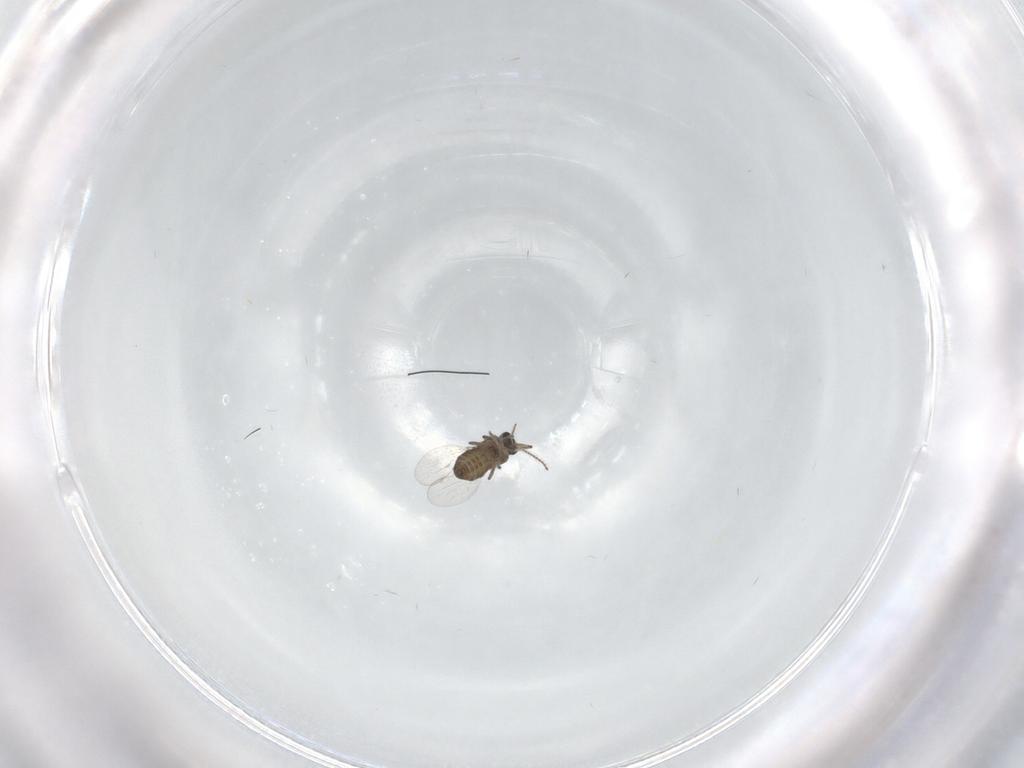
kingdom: Animalia
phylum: Arthropoda
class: Insecta
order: Diptera
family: Ceratopogonidae
